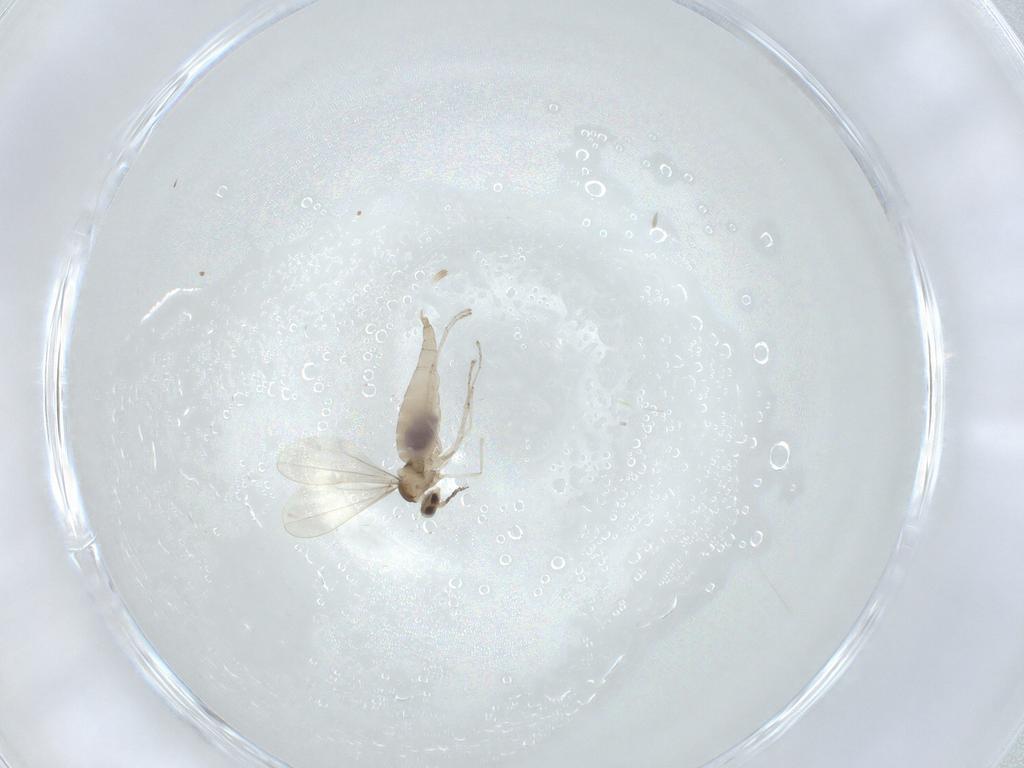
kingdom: Animalia
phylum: Arthropoda
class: Insecta
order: Diptera
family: Cecidomyiidae
